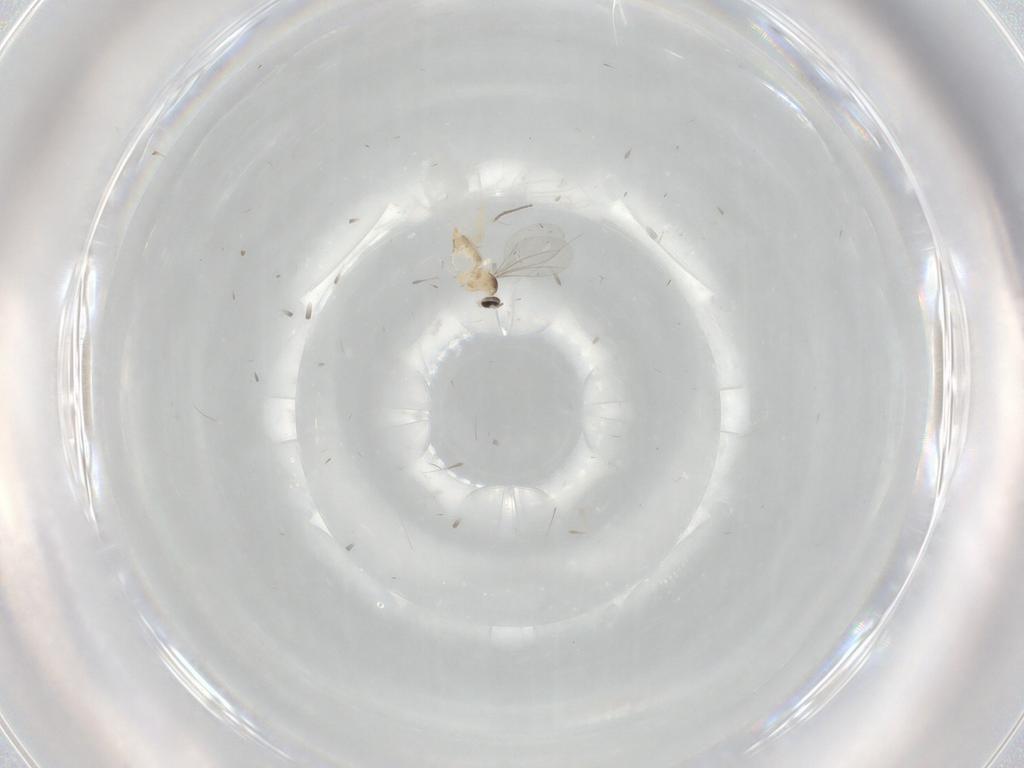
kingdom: Animalia
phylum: Arthropoda
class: Insecta
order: Diptera
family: Cecidomyiidae
